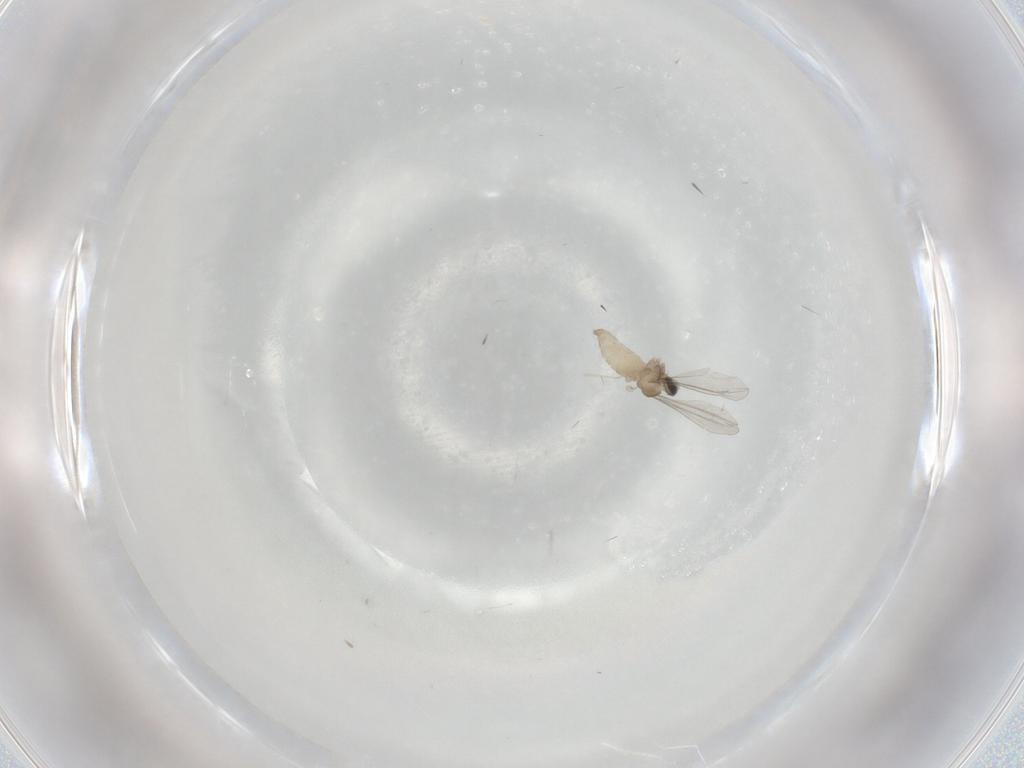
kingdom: Animalia
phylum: Arthropoda
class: Insecta
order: Diptera
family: Cecidomyiidae
